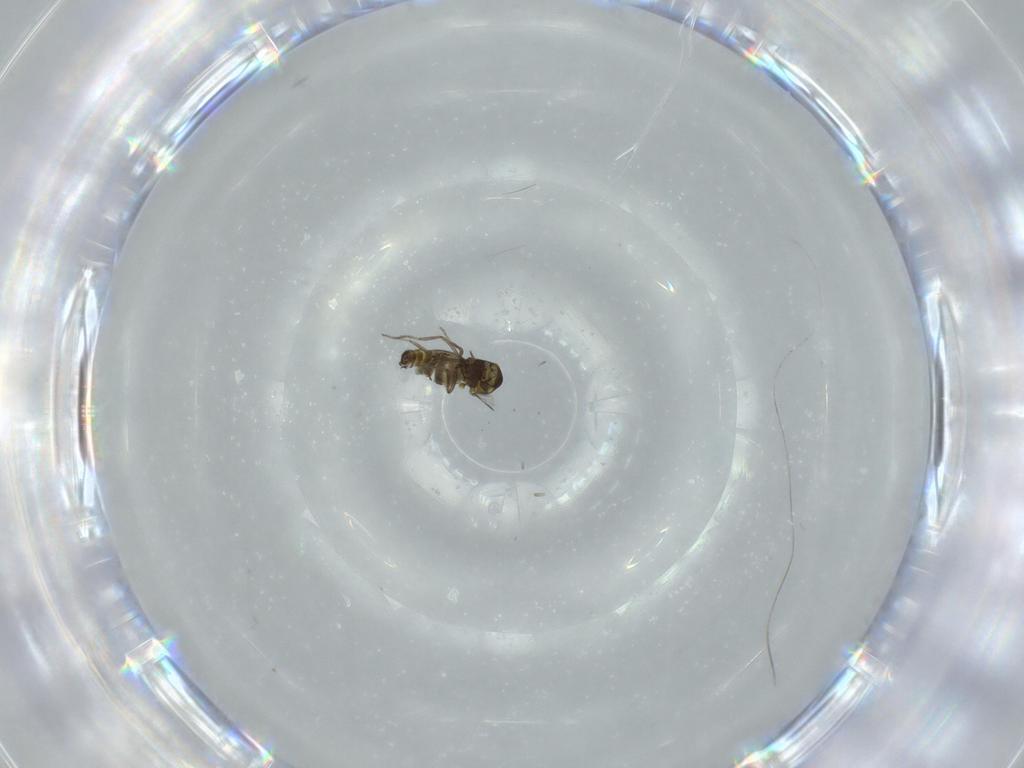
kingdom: Animalia
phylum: Arthropoda
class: Insecta
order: Diptera
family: Ceratopogonidae
